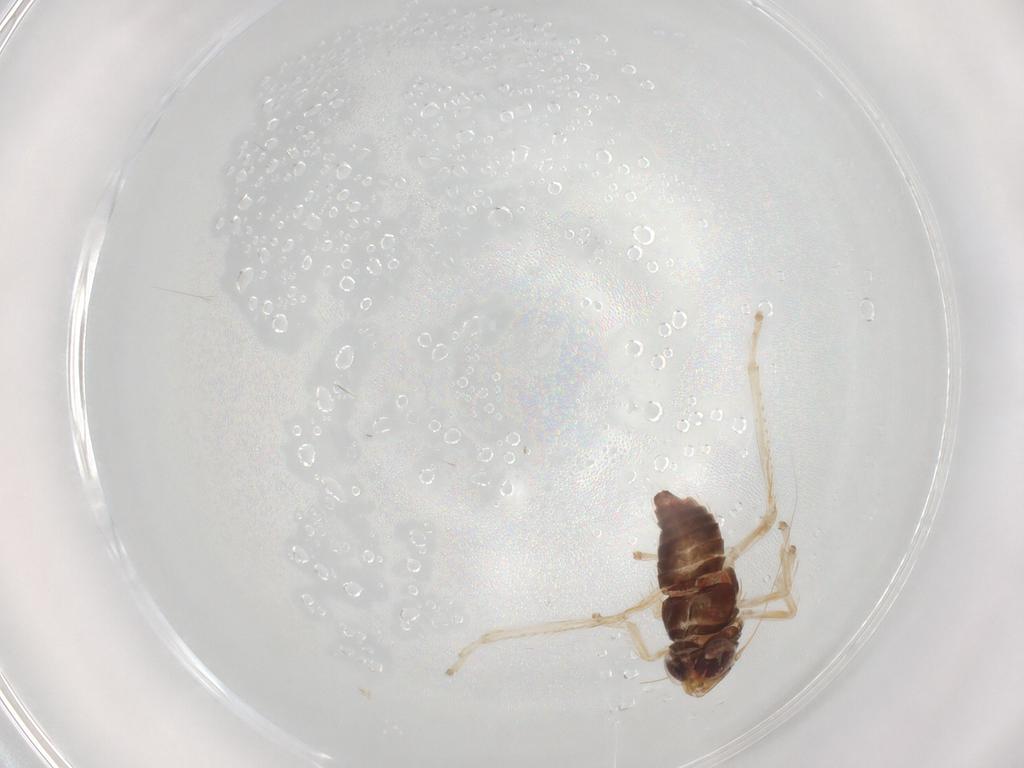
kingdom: Animalia
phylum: Arthropoda
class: Insecta
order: Hemiptera
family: Cicadellidae
